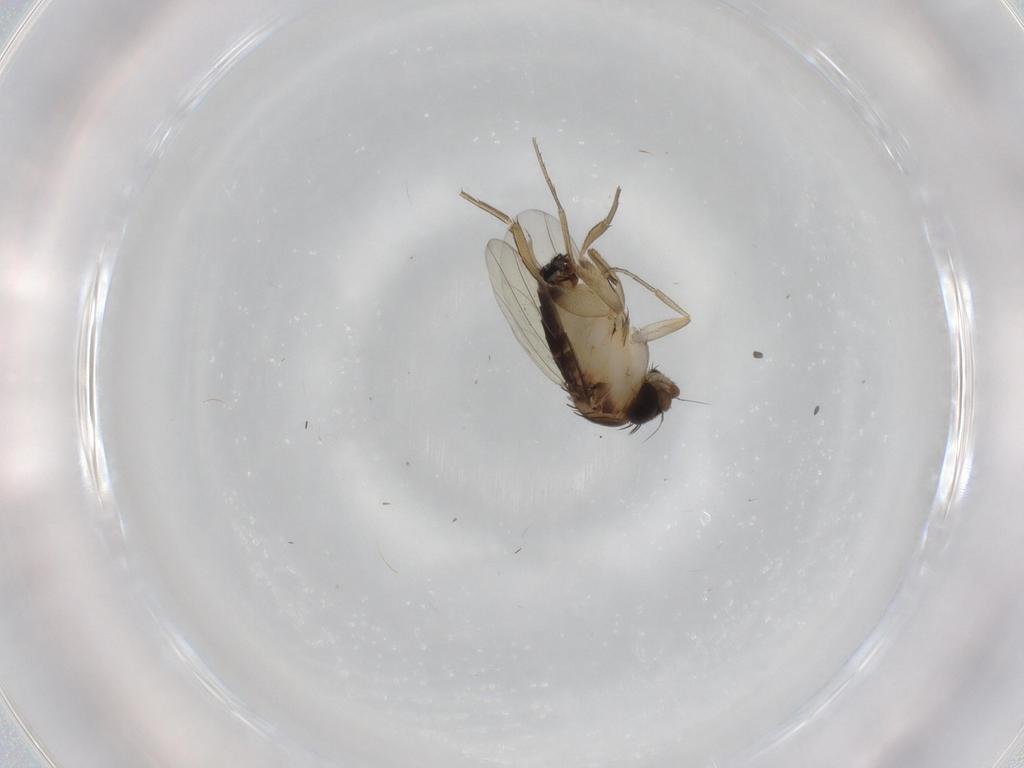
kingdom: Animalia
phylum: Arthropoda
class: Insecta
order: Diptera
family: Phoridae
